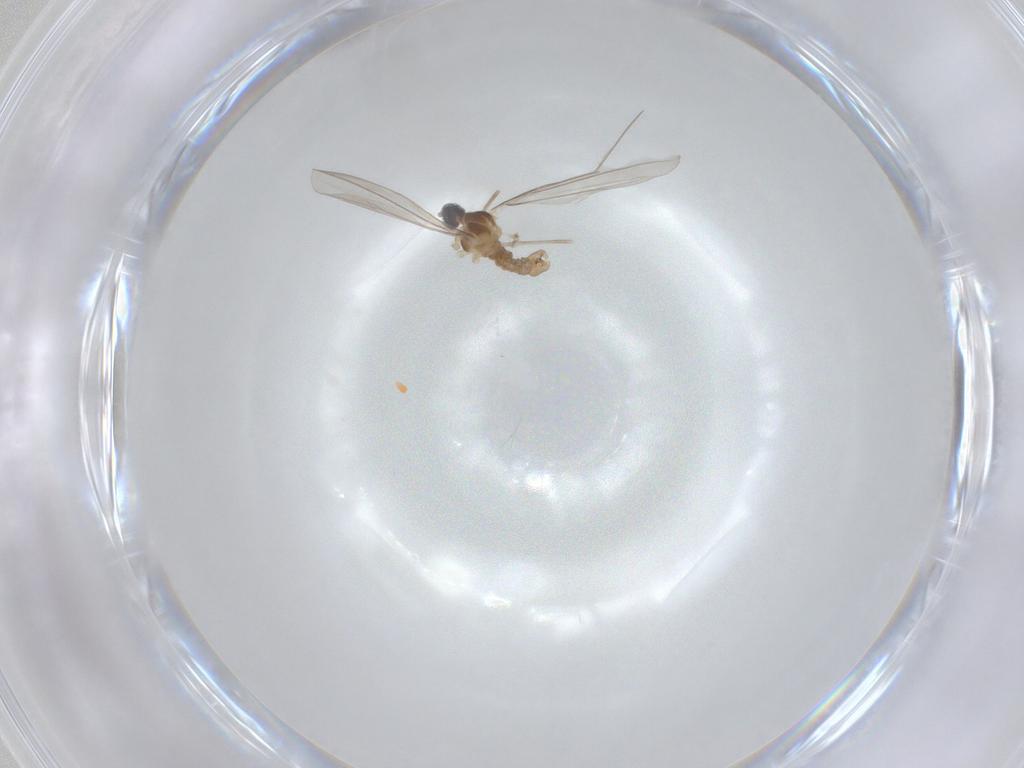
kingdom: Animalia
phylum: Arthropoda
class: Insecta
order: Diptera
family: Cecidomyiidae
